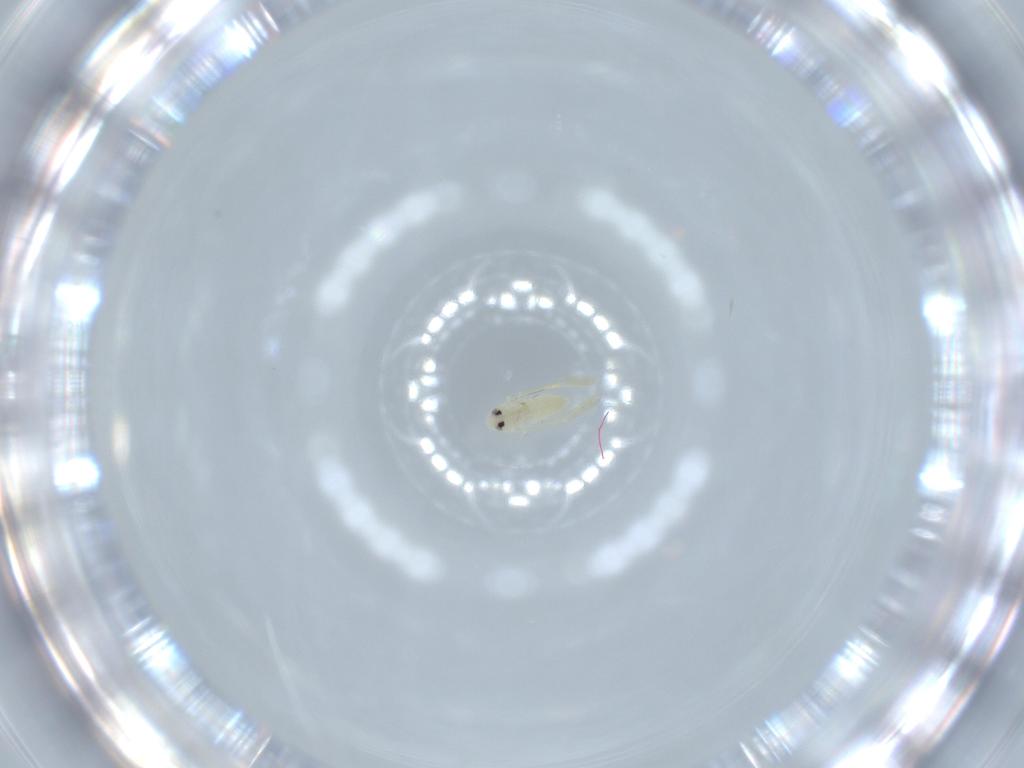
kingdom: Animalia
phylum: Arthropoda
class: Insecta
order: Hemiptera
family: Aleyrodidae
